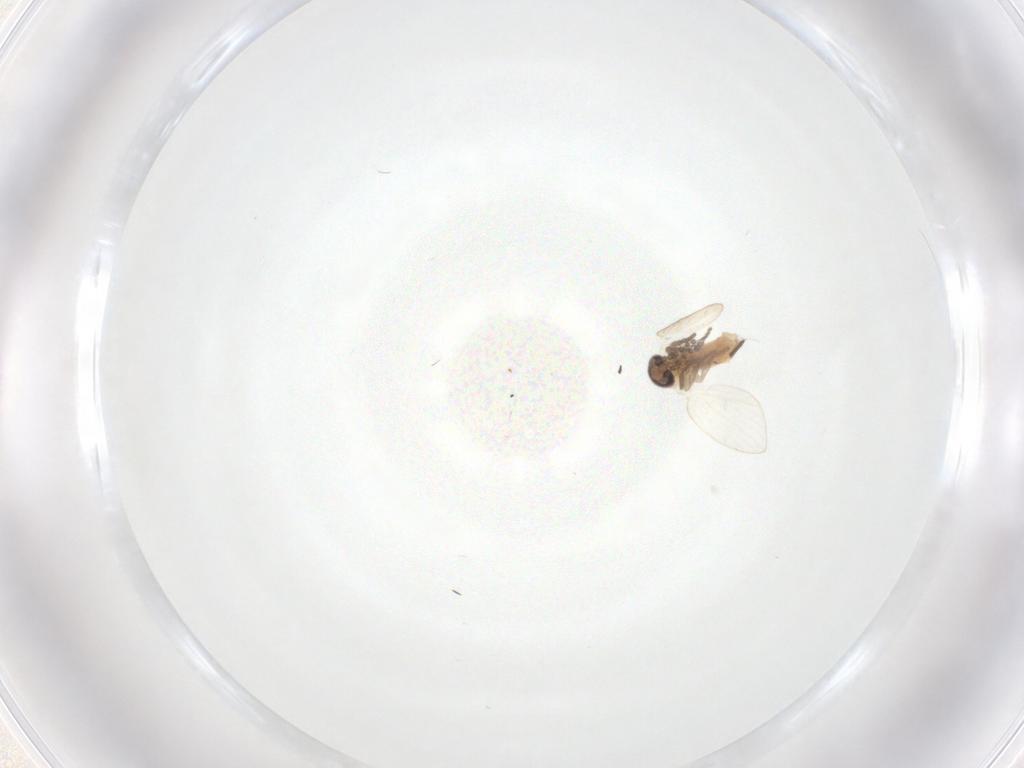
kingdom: Animalia
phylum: Arthropoda
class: Insecta
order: Diptera
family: Psychodidae
